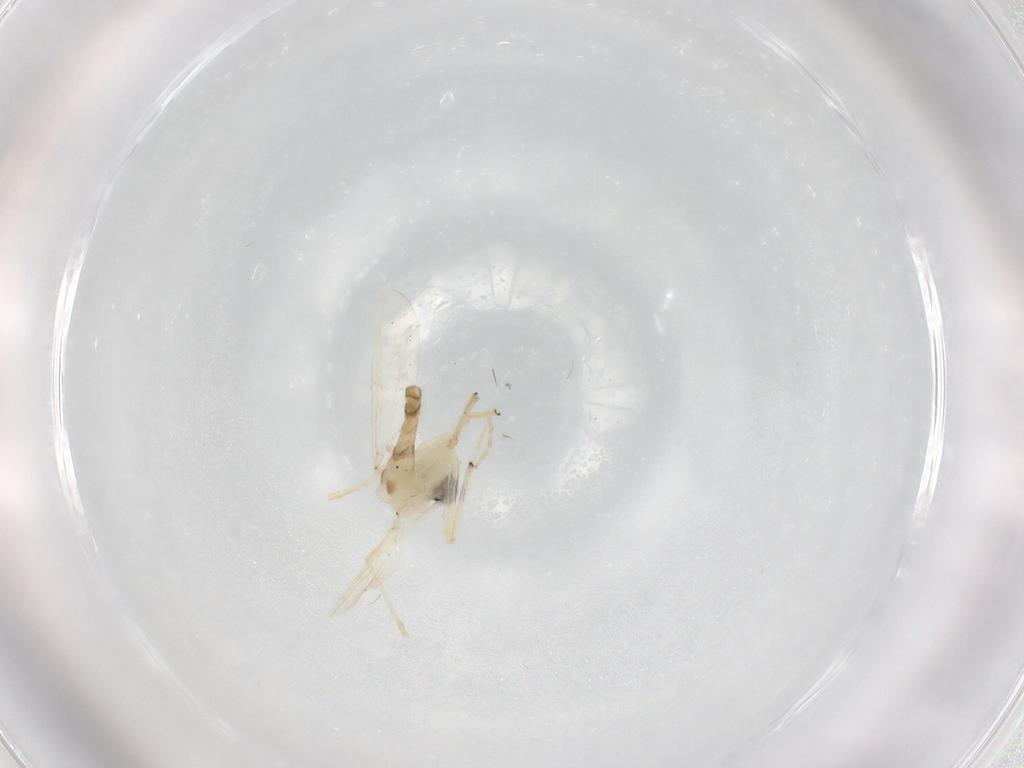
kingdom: Animalia
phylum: Arthropoda
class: Insecta
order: Diptera
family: Chironomidae
